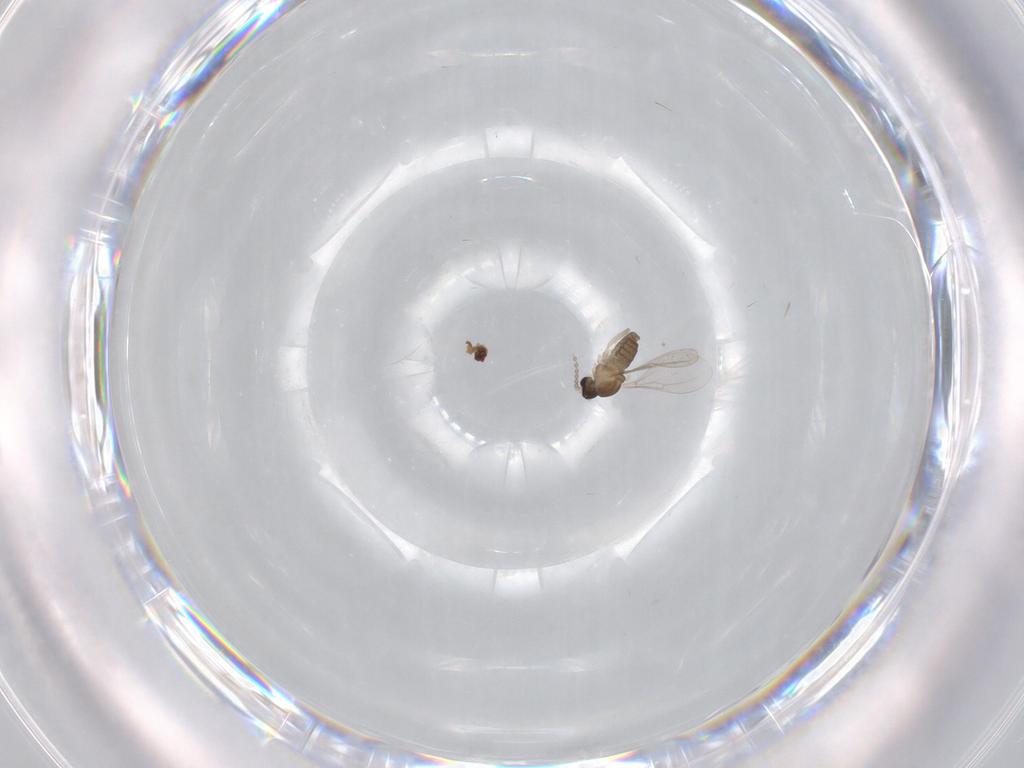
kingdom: Animalia
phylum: Arthropoda
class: Insecta
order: Diptera
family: Cecidomyiidae
